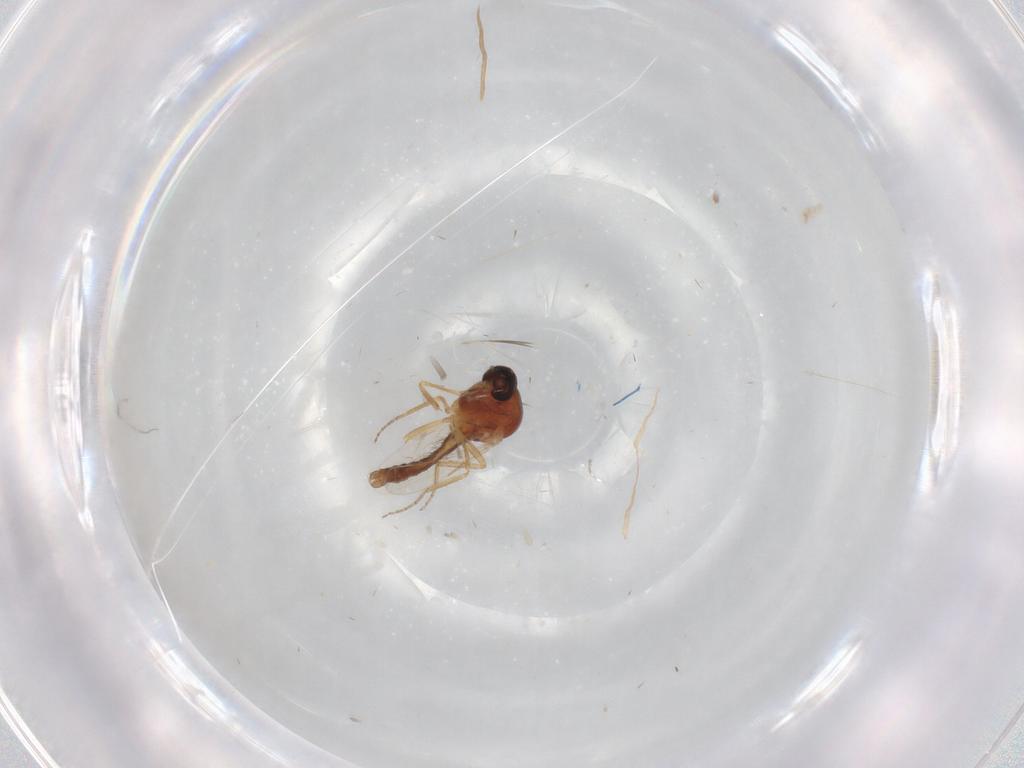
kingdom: Animalia
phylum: Arthropoda
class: Insecta
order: Diptera
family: Chironomidae
